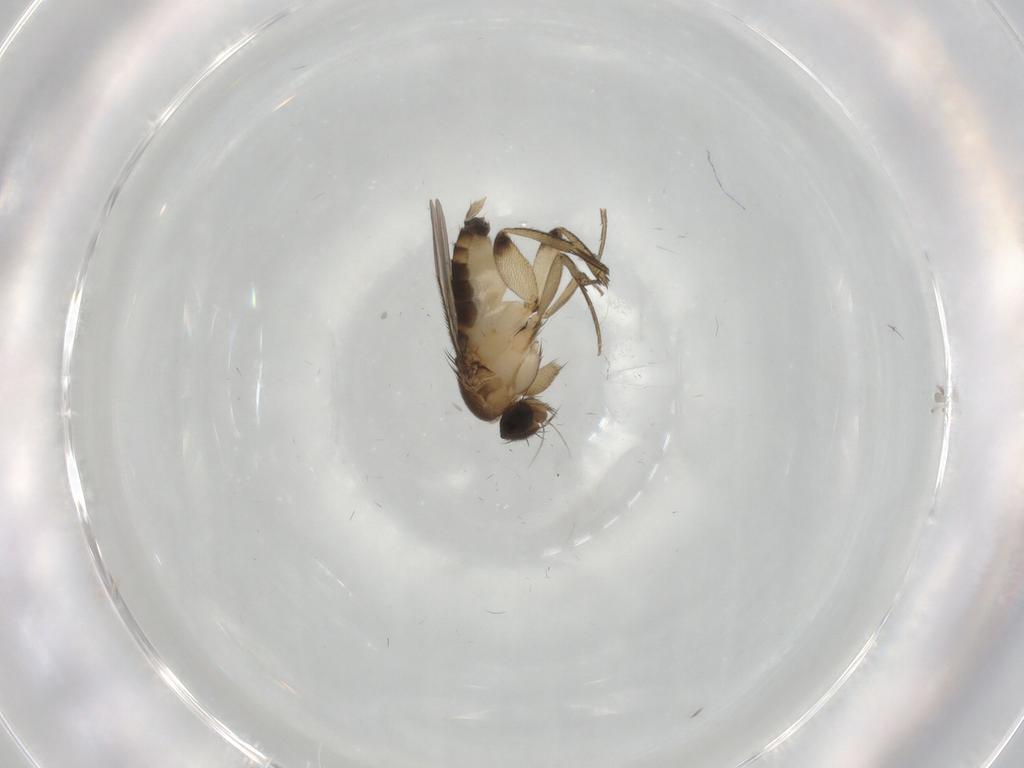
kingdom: Animalia
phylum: Arthropoda
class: Insecta
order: Diptera
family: Phoridae
